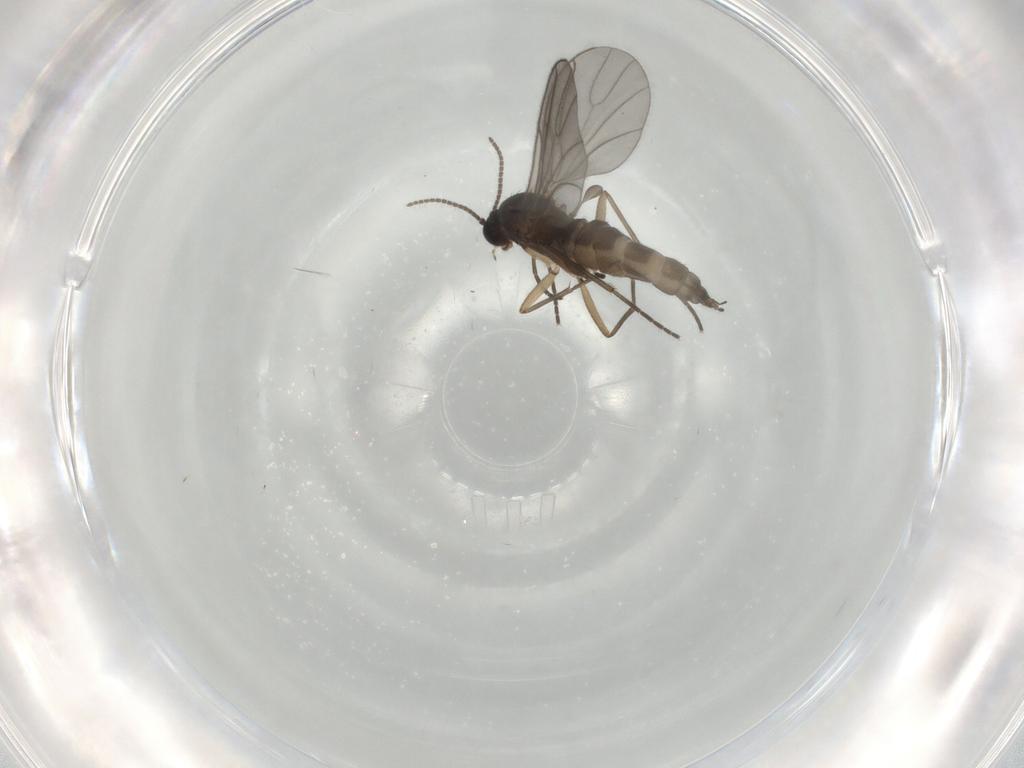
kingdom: Animalia
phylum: Arthropoda
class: Insecta
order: Diptera
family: Sciaridae
